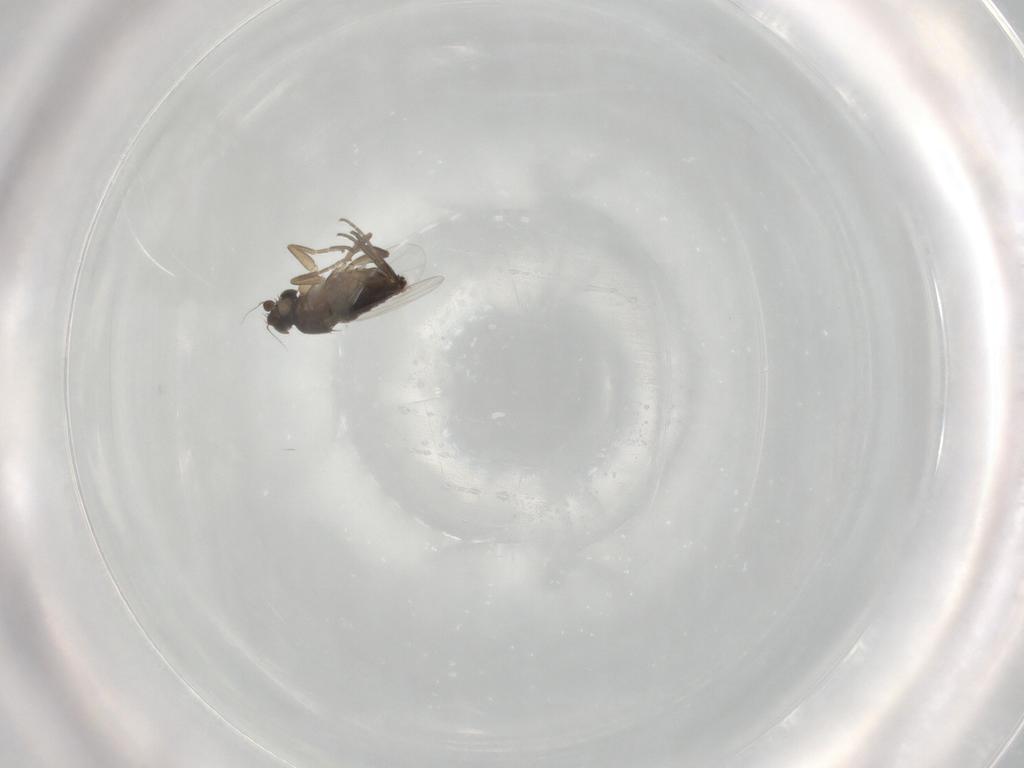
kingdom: Animalia
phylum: Arthropoda
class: Insecta
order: Diptera
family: Phoridae
